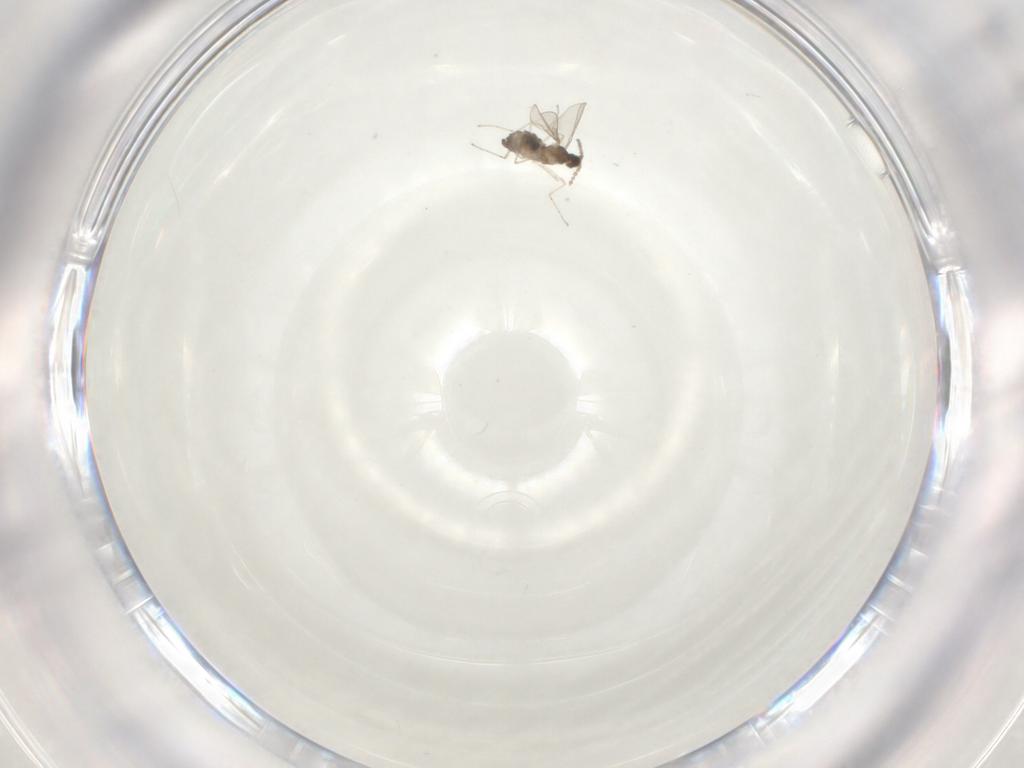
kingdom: Animalia
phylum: Arthropoda
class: Insecta
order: Diptera
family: Cecidomyiidae
